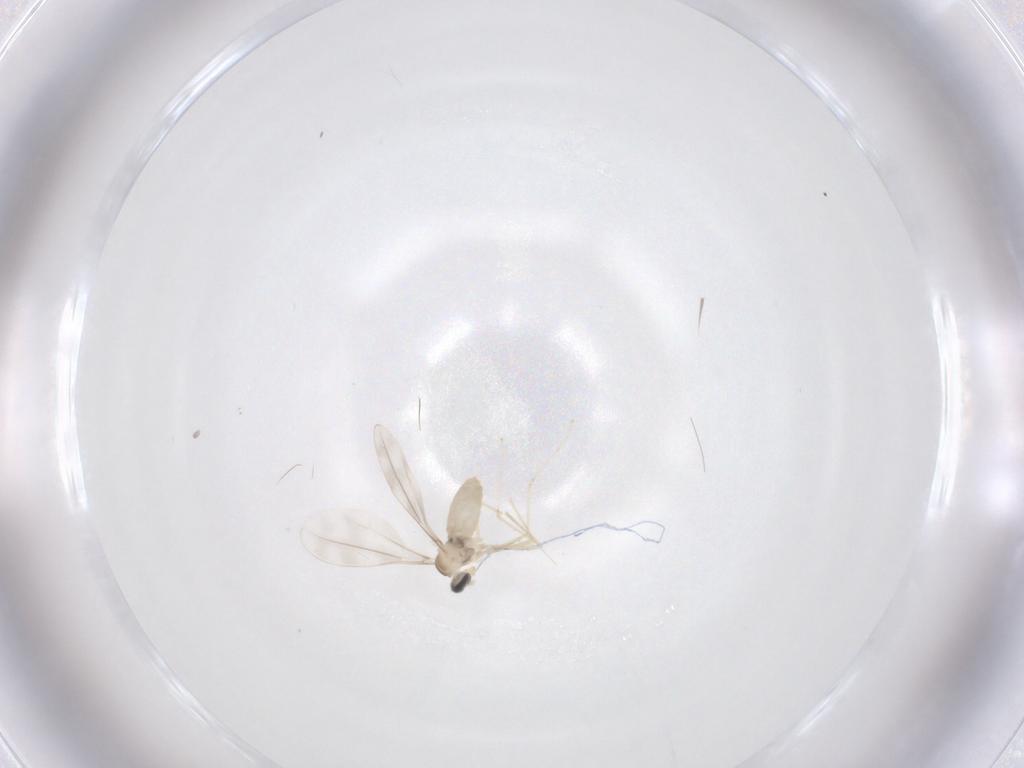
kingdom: Animalia
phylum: Arthropoda
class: Insecta
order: Diptera
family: Cecidomyiidae
